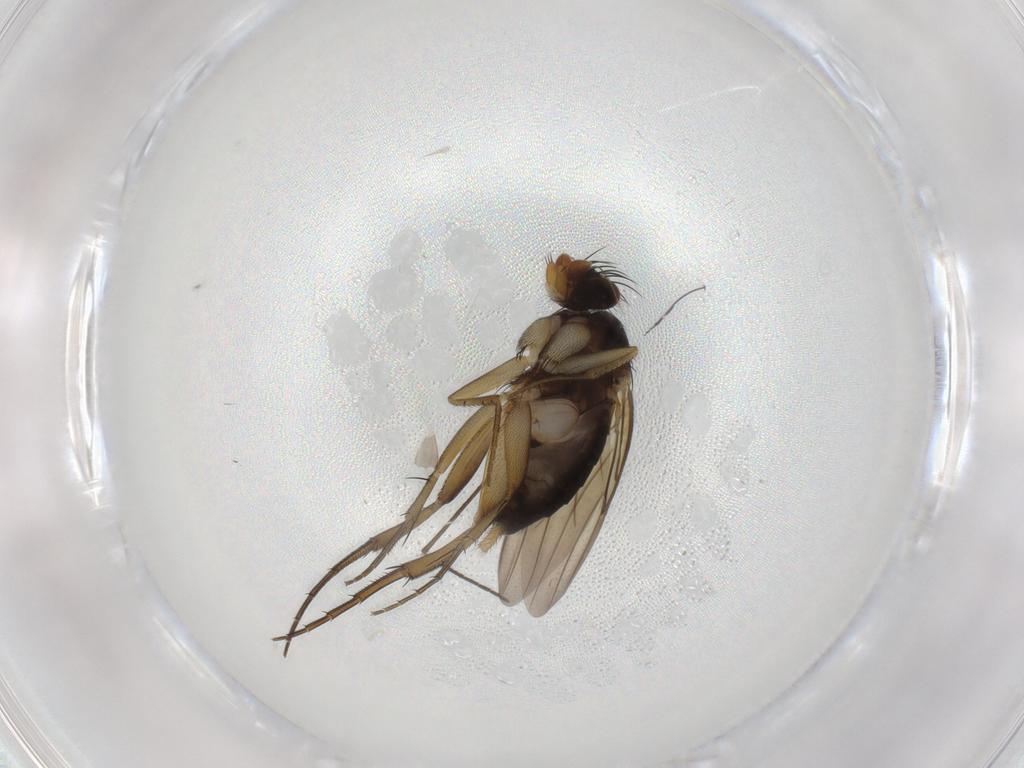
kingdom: Animalia
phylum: Arthropoda
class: Insecta
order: Diptera
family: Phoridae
